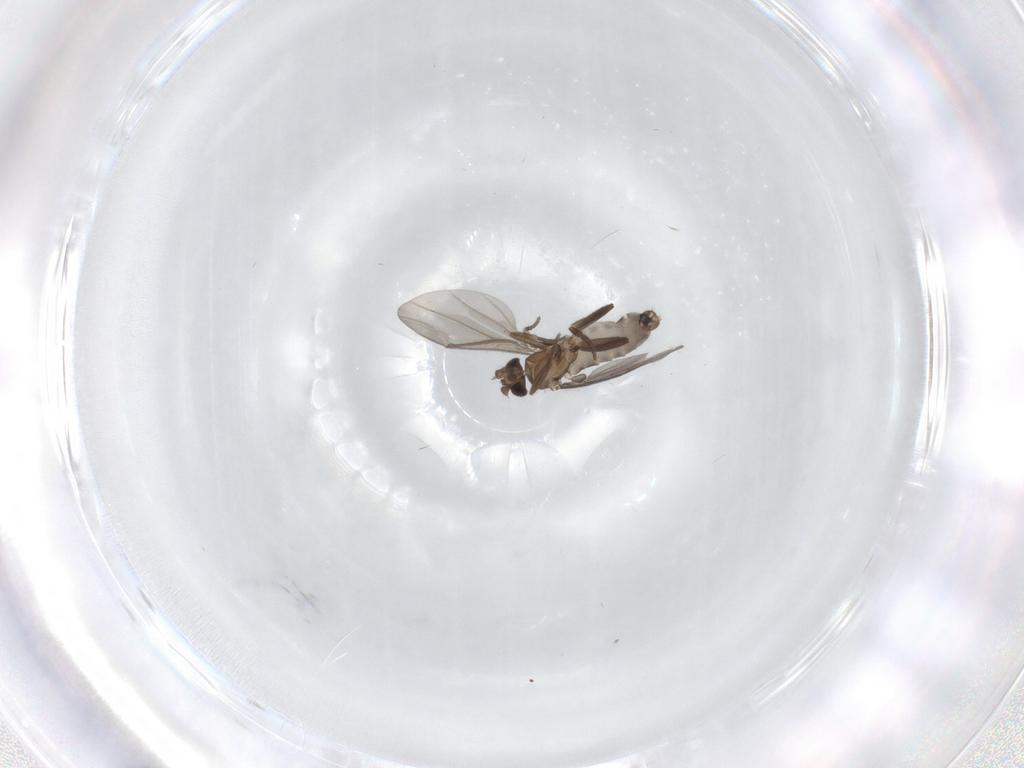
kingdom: Animalia
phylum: Arthropoda
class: Insecta
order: Diptera
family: Phoridae
